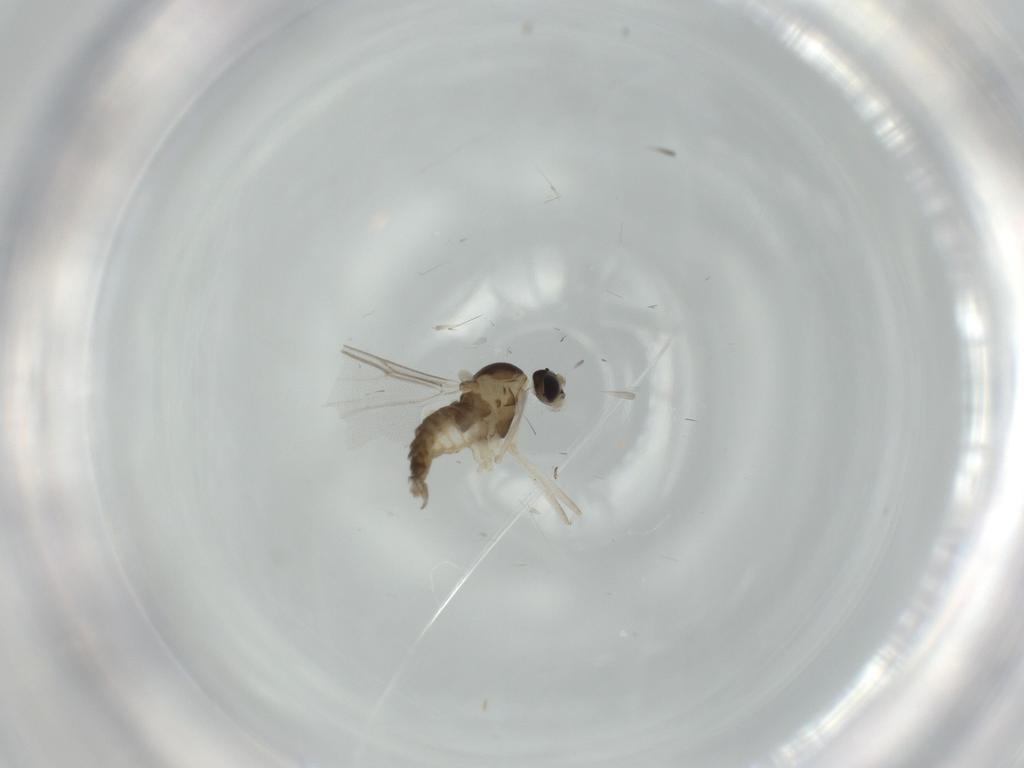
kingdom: Animalia
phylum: Arthropoda
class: Insecta
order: Diptera
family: Cecidomyiidae
